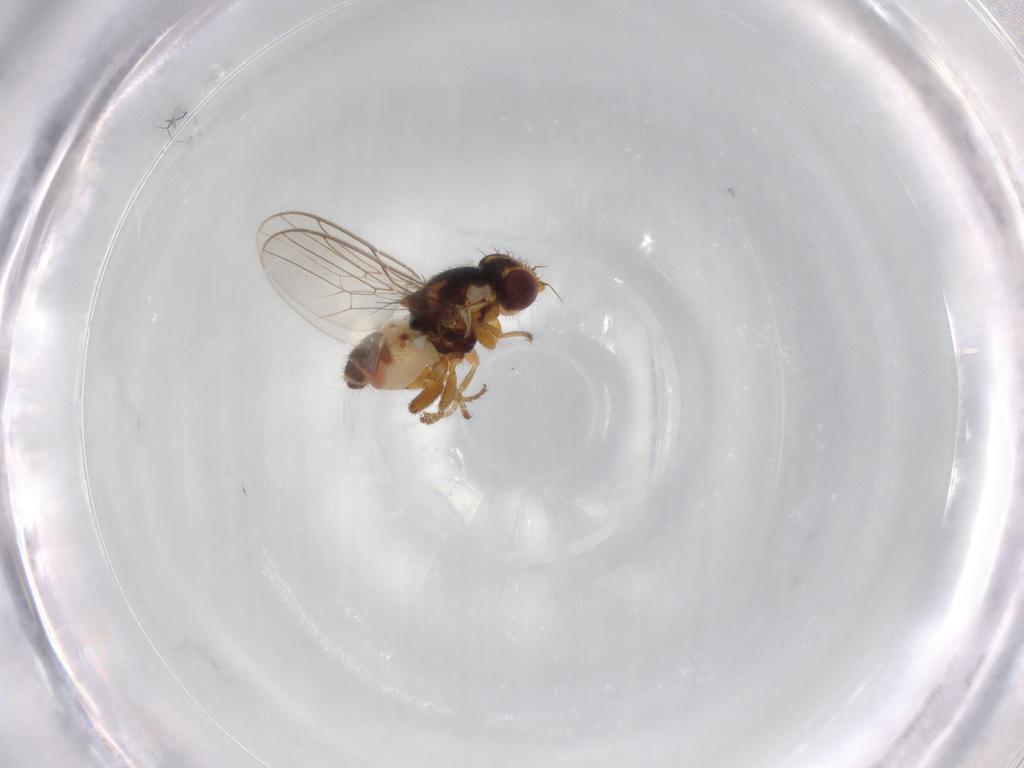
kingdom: Animalia
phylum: Arthropoda
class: Insecta
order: Diptera
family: Chloropidae
